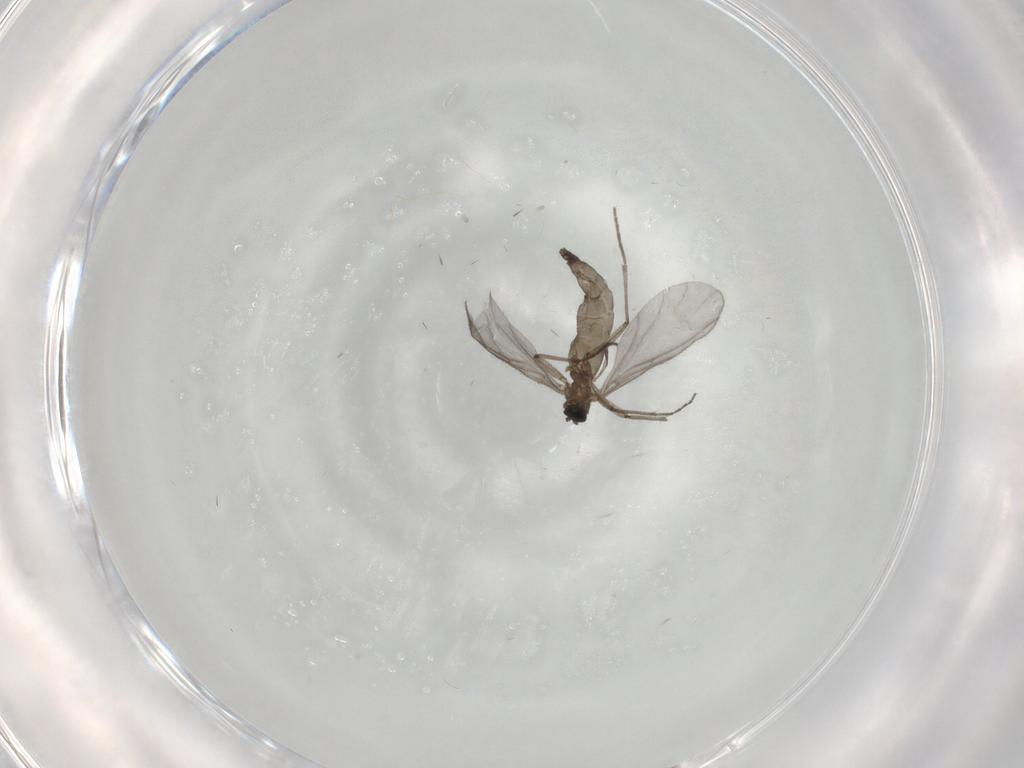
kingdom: Animalia
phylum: Arthropoda
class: Insecta
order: Diptera
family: Sciaridae
